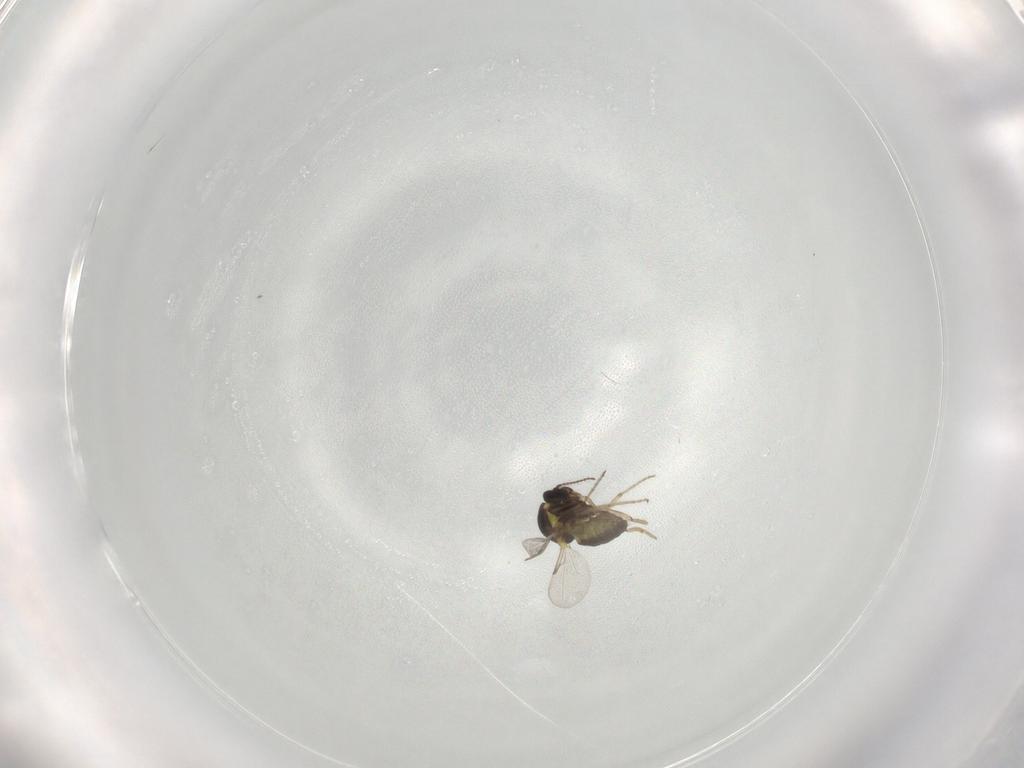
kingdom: Animalia
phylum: Arthropoda
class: Insecta
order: Diptera
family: Ceratopogonidae
